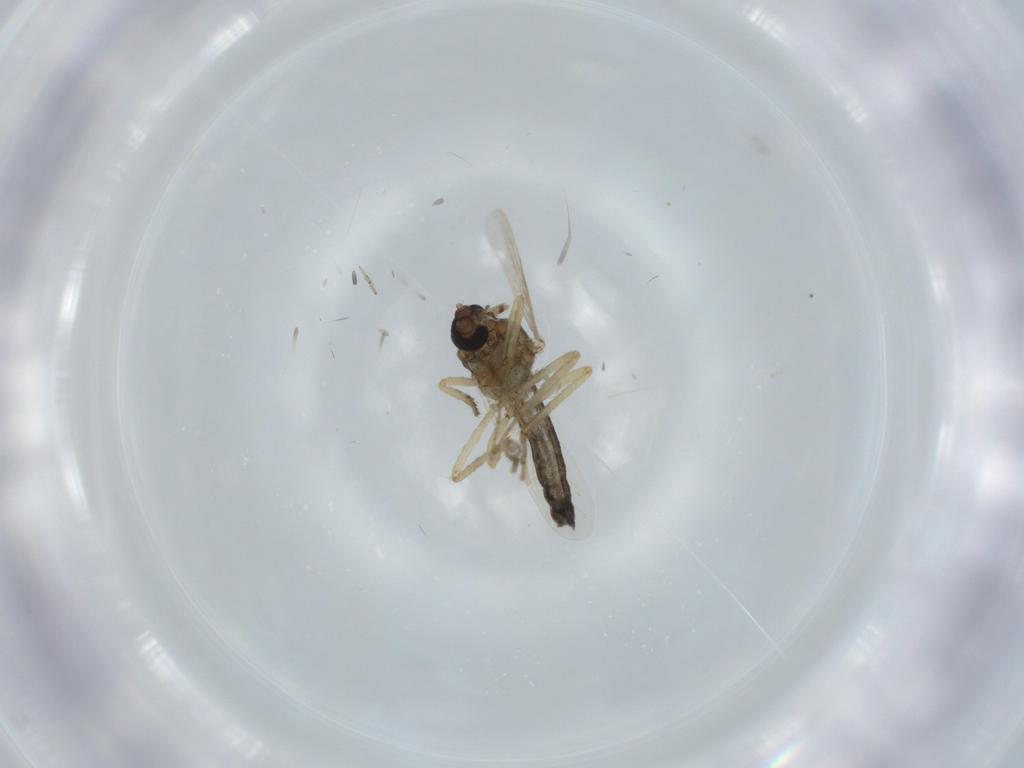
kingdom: Animalia
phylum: Arthropoda
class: Insecta
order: Diptera
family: Ceratopogonidae
